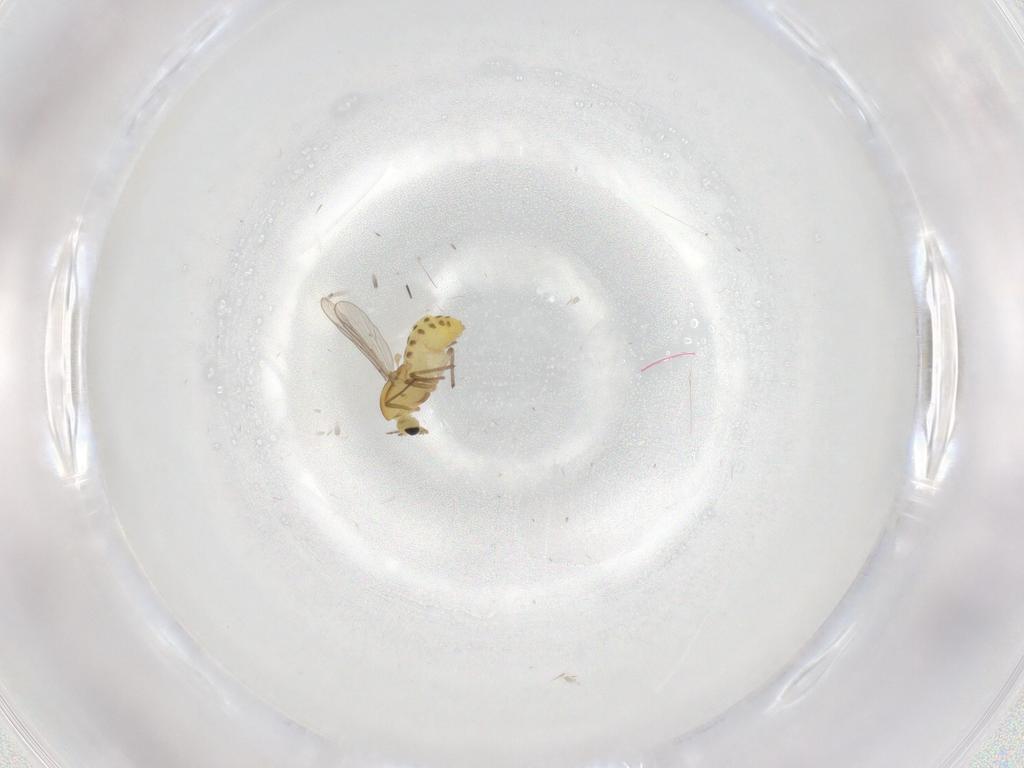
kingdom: Animalia
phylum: Arthropoda
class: Insecta
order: Diptera
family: Chironomidae
